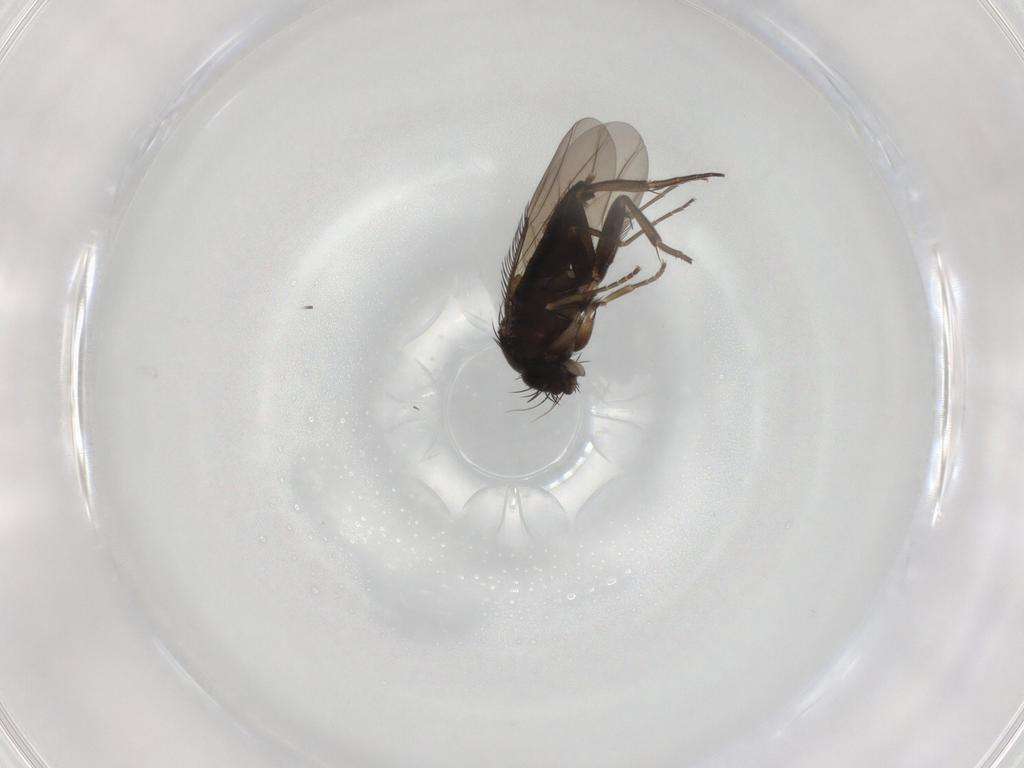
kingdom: Animalia
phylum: Arthropoda
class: Insecta
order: Diptera
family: Phoridae
